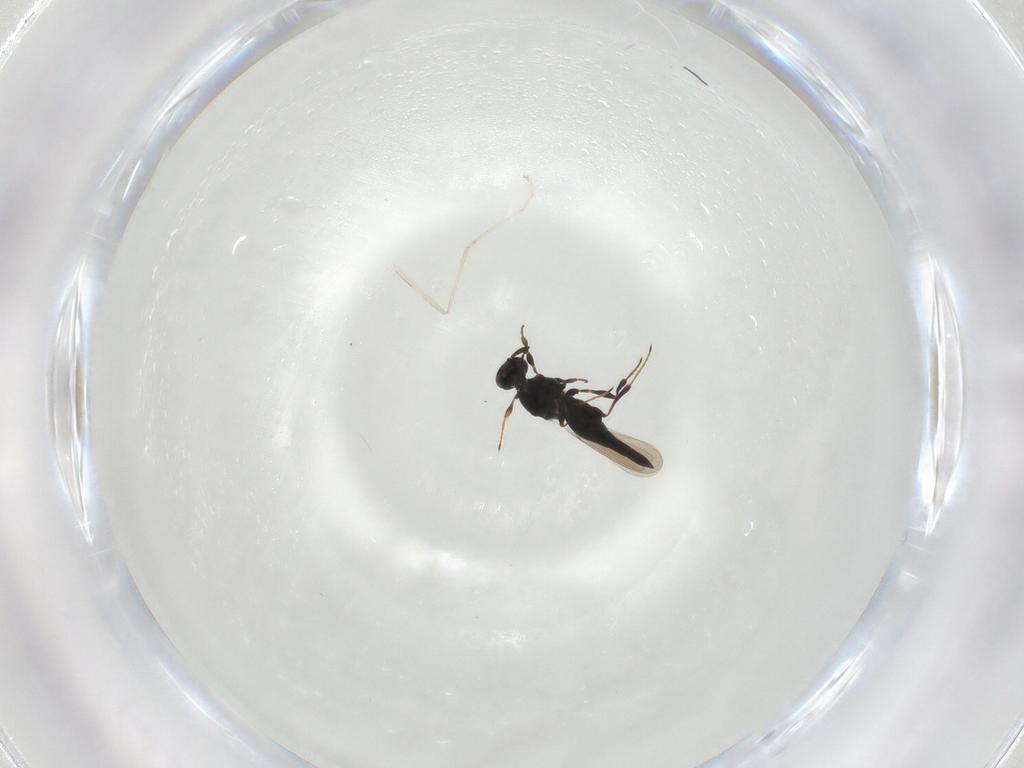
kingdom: Animalia
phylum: Arthropoda
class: Insecta
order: Hymenoptera
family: Platygastridae
